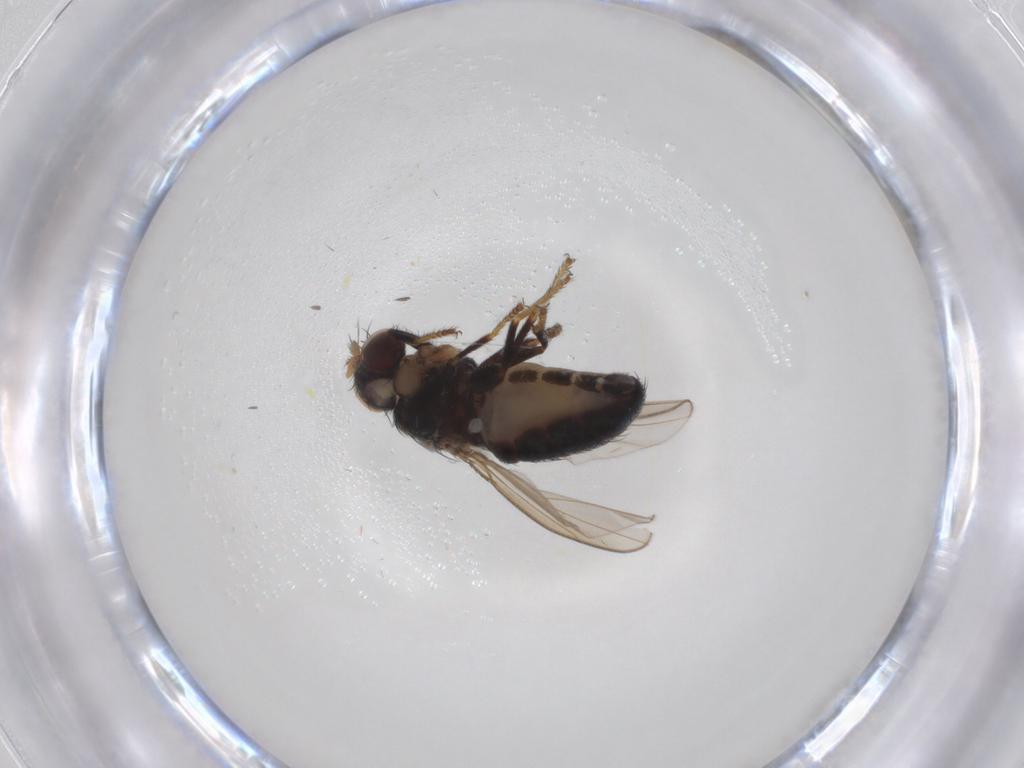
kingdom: Animalia
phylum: Arthropoda
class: Insecta
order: Diptera
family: Ephydridae
